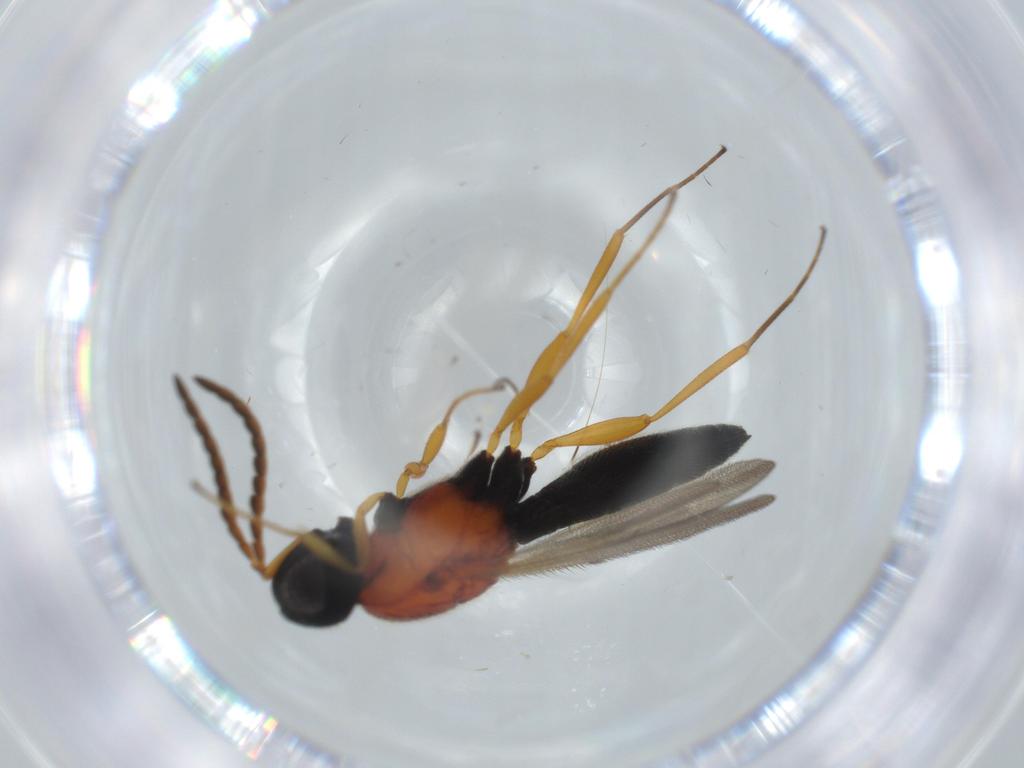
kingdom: Animalia
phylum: Arthropoda
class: Insecta
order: Hymenoptera
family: Scelionidae
